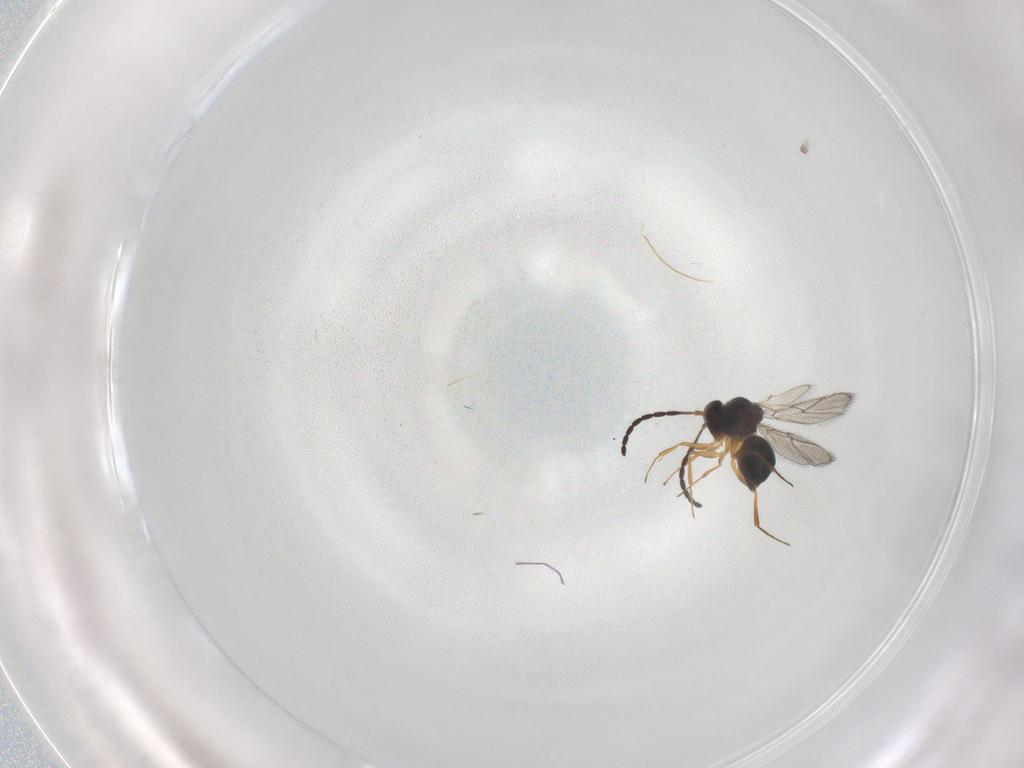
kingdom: Animalia
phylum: Arthropoda
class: Insecta
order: Hymenoptera
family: Figitidae
